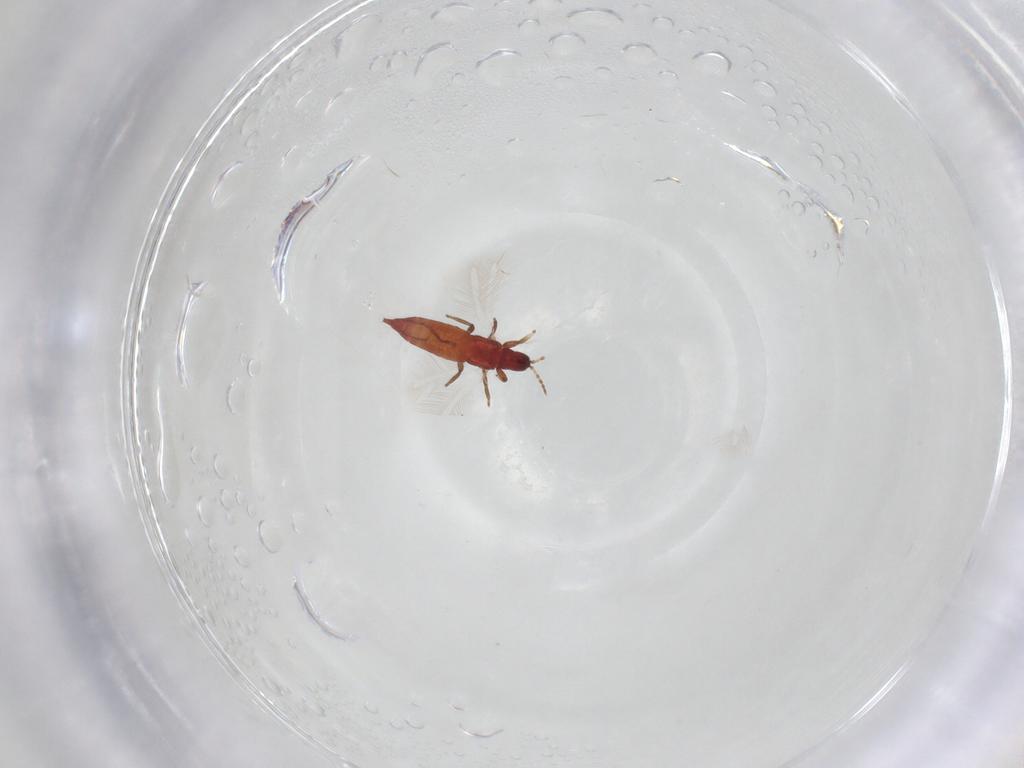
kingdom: Animalia
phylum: Arthropoda
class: Insecta
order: Thysanoptera
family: Phlaeothripidae
